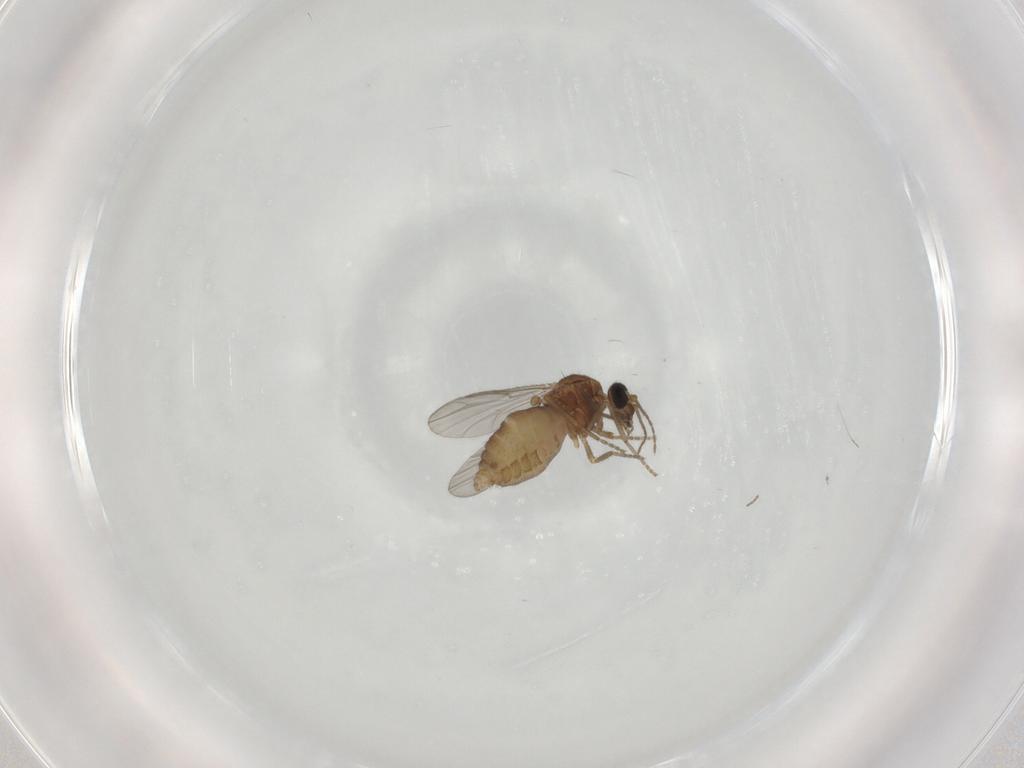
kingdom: Animalia
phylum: Arthropoda
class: Insecta
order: Diptera
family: Ceratopogonidae
